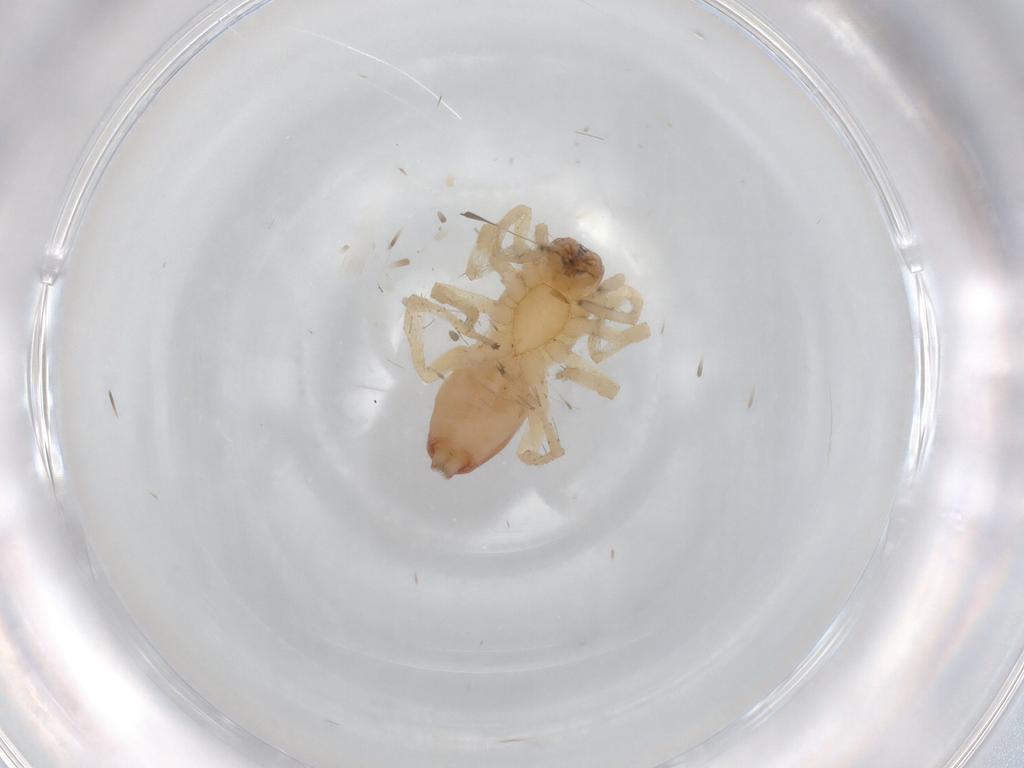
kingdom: Animalia
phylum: Arthropoda
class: Arachnida
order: Araneae
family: Clubionidae
